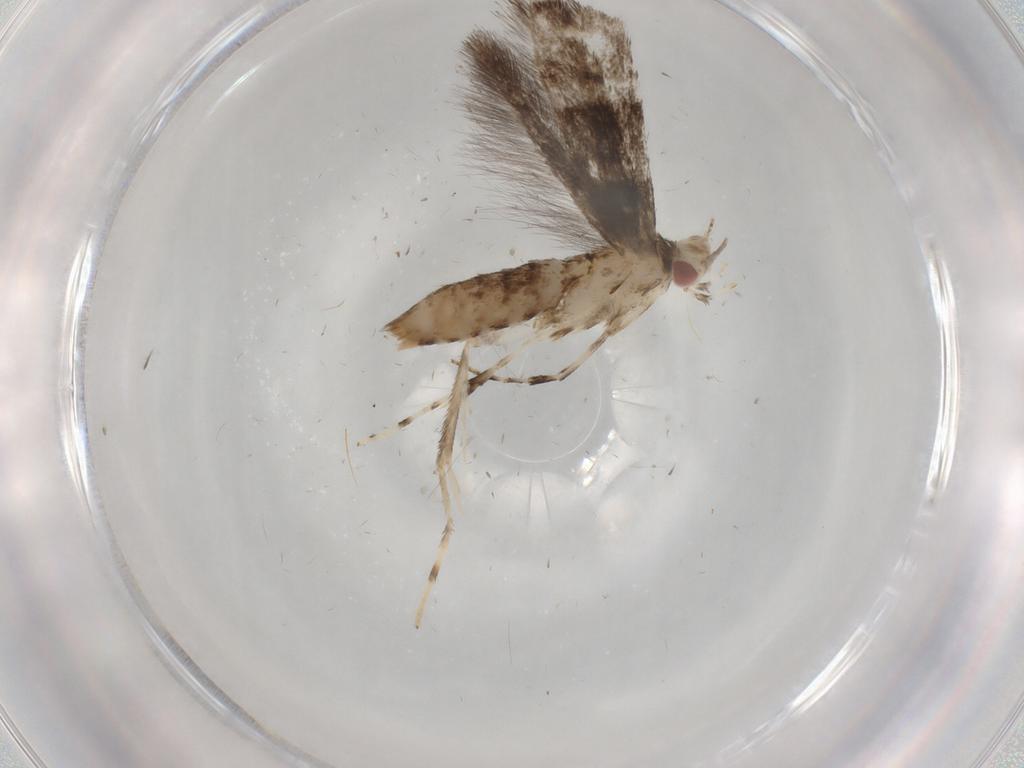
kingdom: Animalia
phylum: Arthropoda
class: Insecta
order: Lepidoptera
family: Gracillariidae
